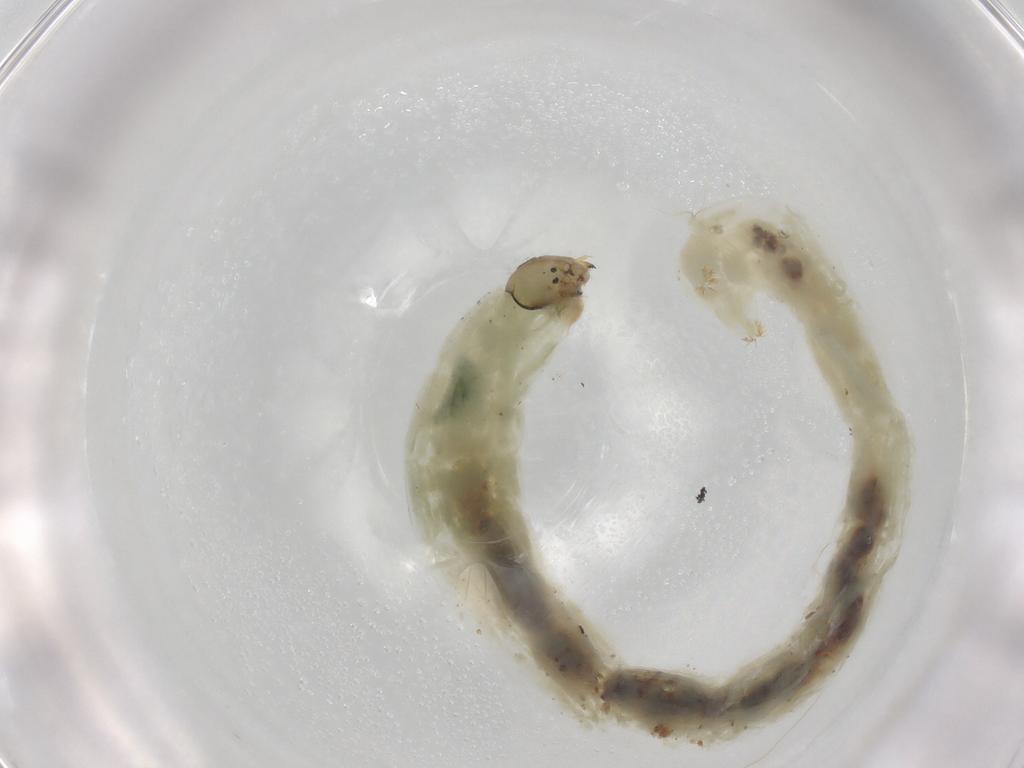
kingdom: Animalia
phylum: Arthropoda
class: Insecta
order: Diptera
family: Chironomidae
